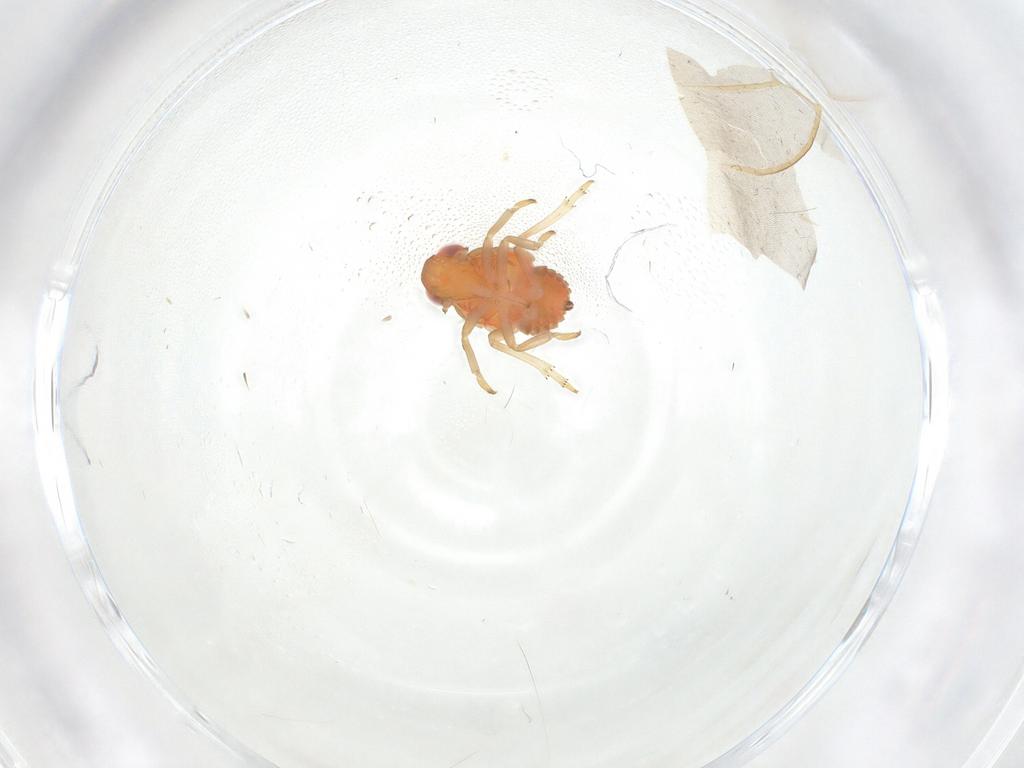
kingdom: Animalia
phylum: Arthropoda
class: Insecta
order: Hemiptera
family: Fulgoroidea_incertae_sedis
